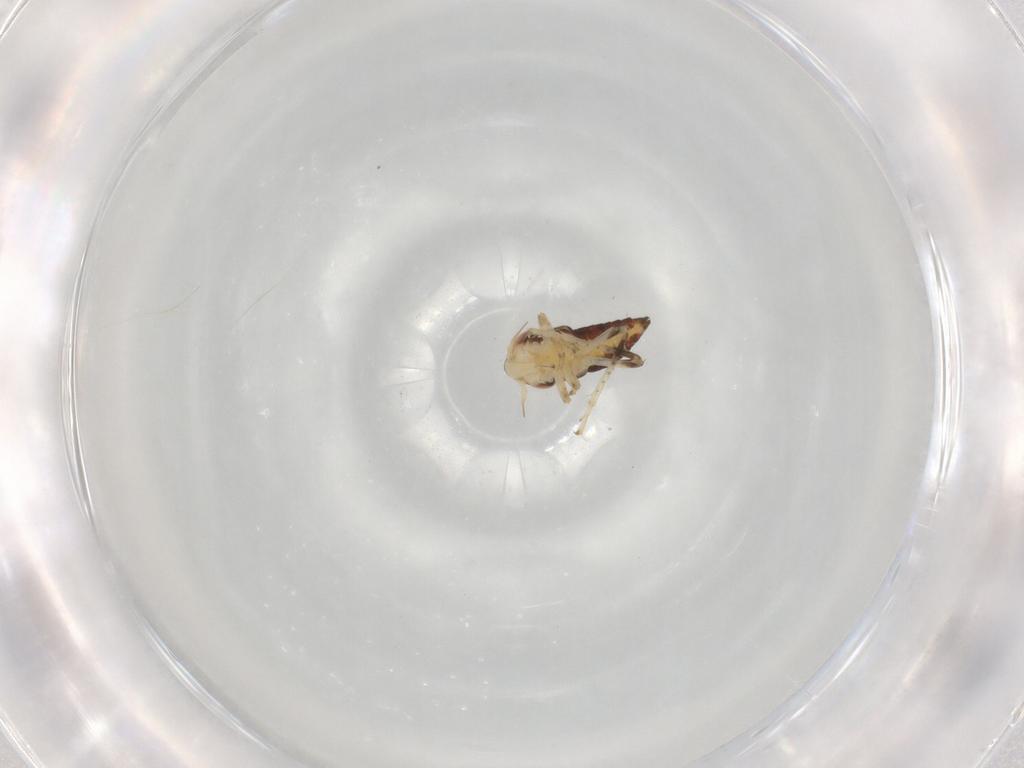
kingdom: Animalia
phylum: Arthropoda
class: Insecta
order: Hemiptera
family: Cicadellidae
